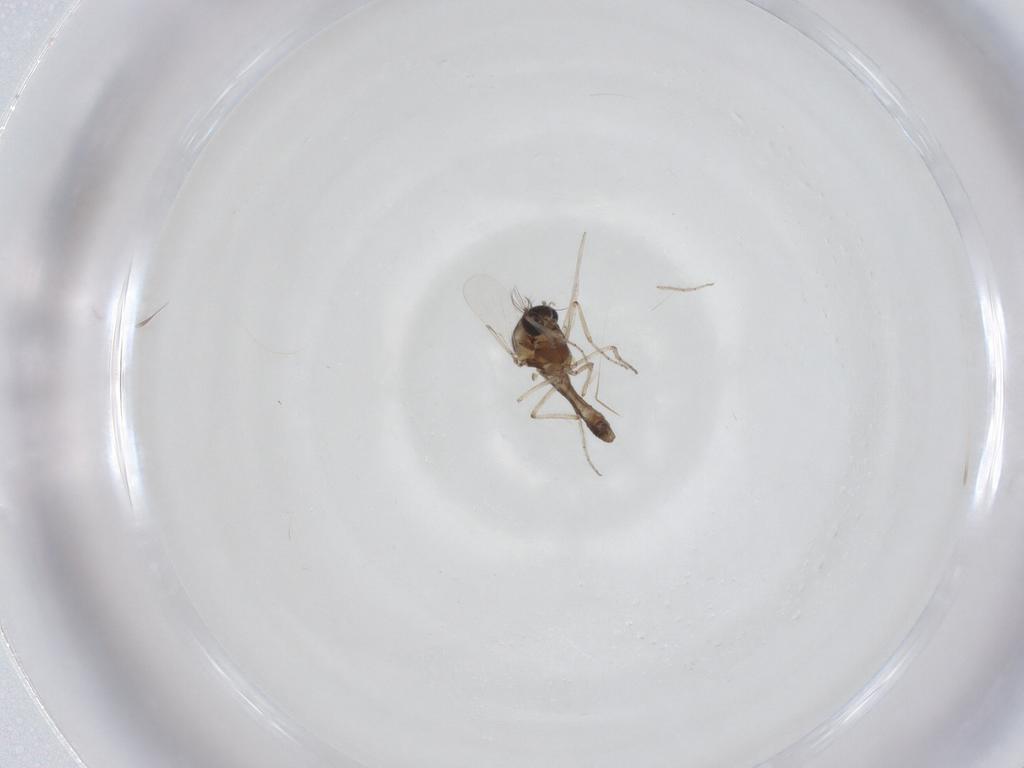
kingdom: Animalia
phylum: Arthropoda
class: Insecta
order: Diptera
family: Ceratopogonidae
